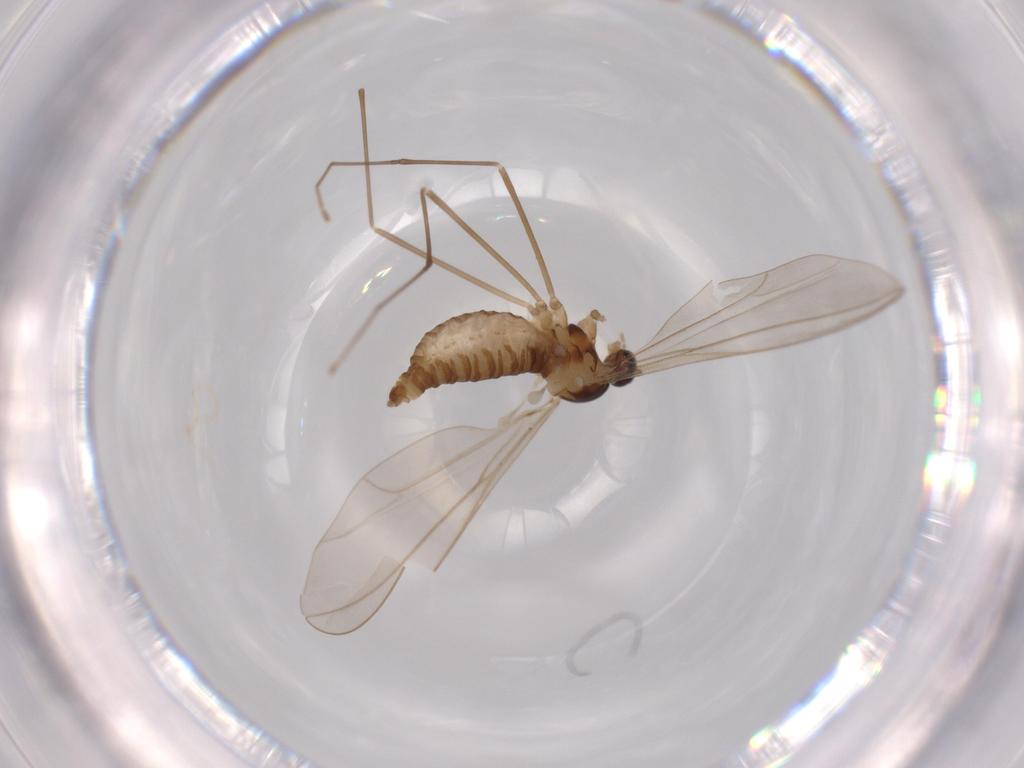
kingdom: Animalia
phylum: Arthropoda
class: Insecta
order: Diptera
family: Cecidomyiidae
